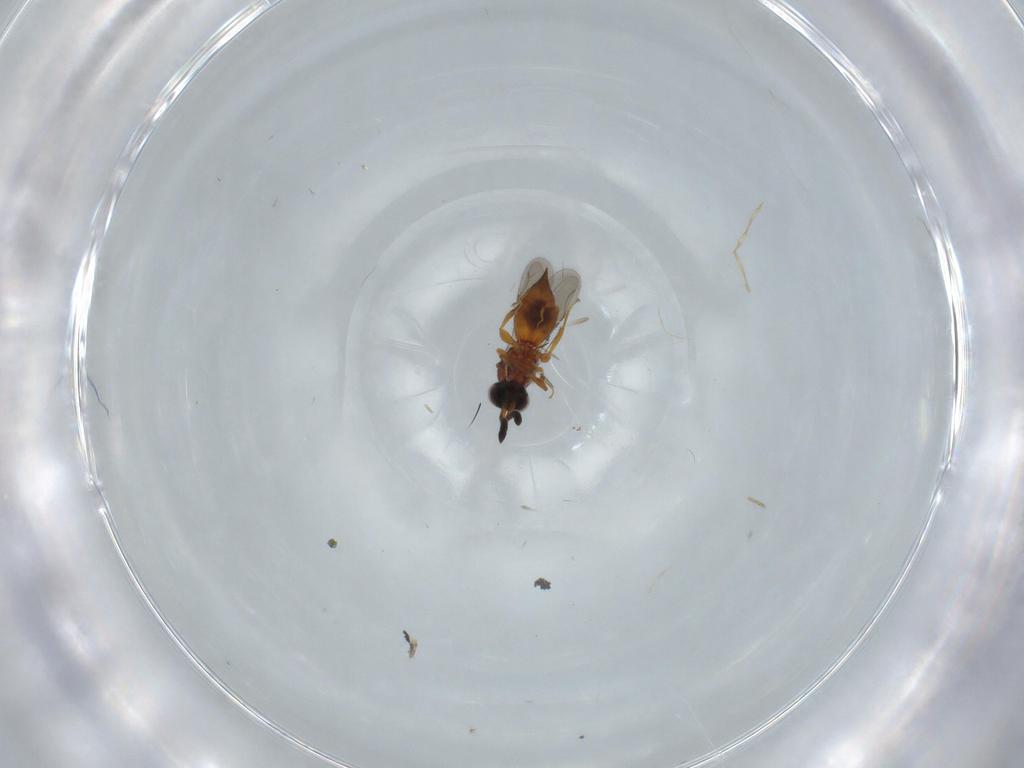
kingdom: Animalia
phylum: Arthropoda
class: Insecta
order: Hymenoptera
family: Ceraphronidae
